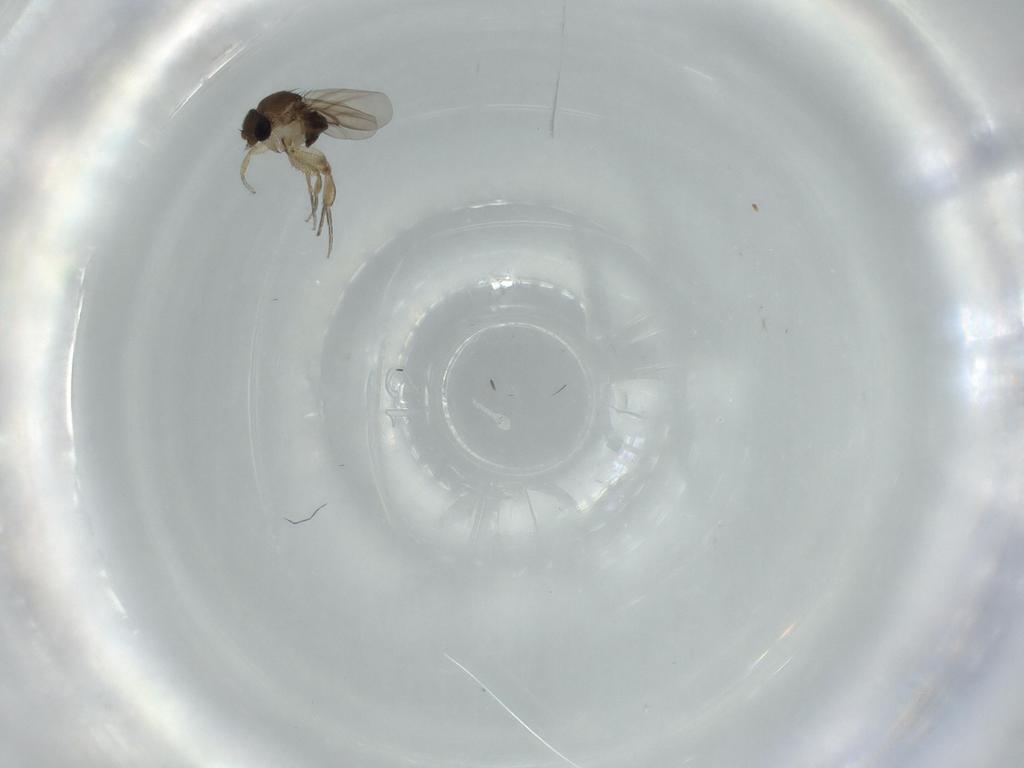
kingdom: Animalia
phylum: Arthropoda
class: Insecta
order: Diptera
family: Phoridae
